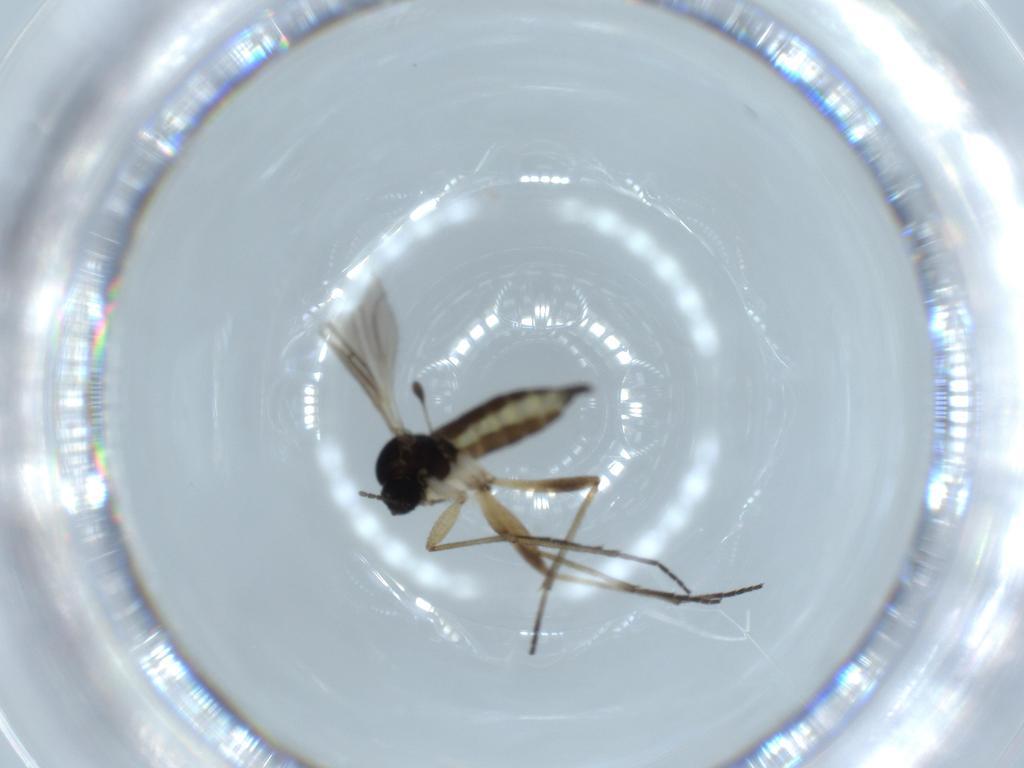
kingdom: Animalia
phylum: Arthropoda
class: Insecta
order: Diptera
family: Sciaridae
